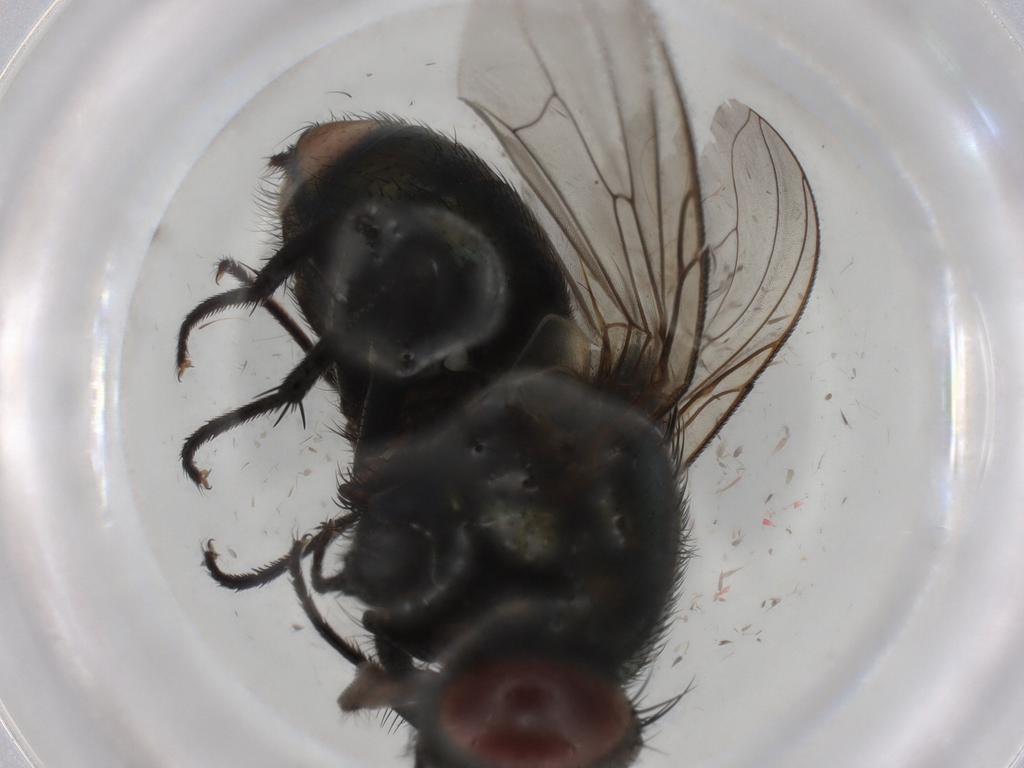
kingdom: Animalia
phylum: Arthropoda
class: Insecta
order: Diptera
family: Muscidae
